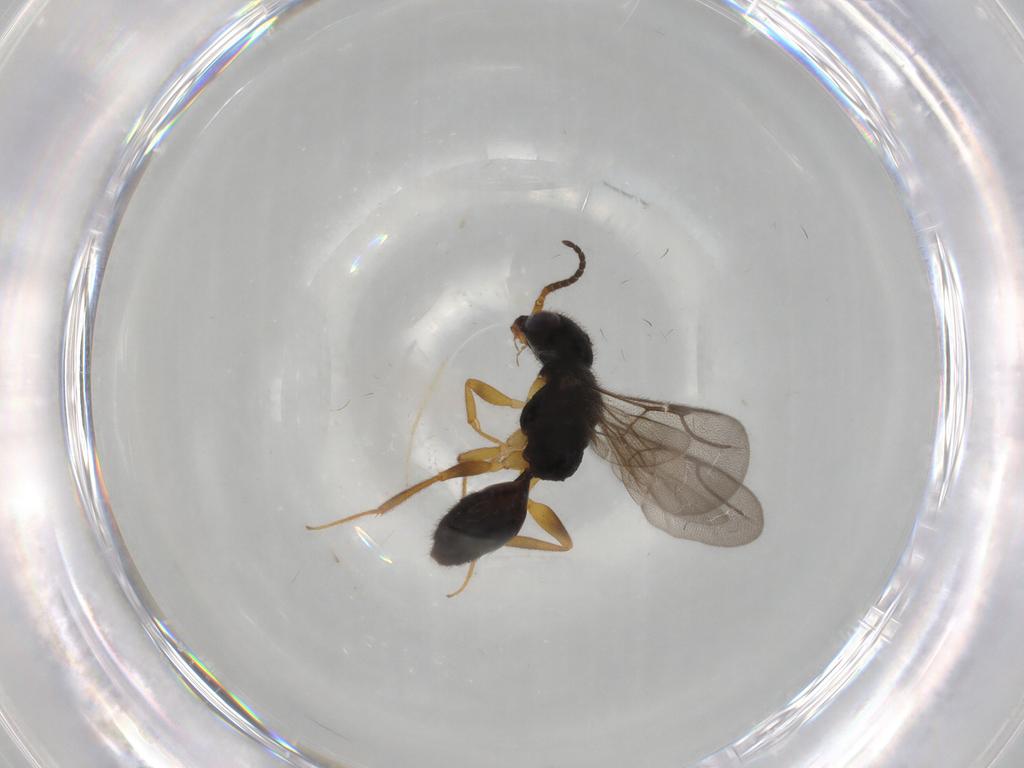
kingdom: Animalia
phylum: Arthropoda
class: Insecta
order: Hymenoptera
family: Bethylidae
